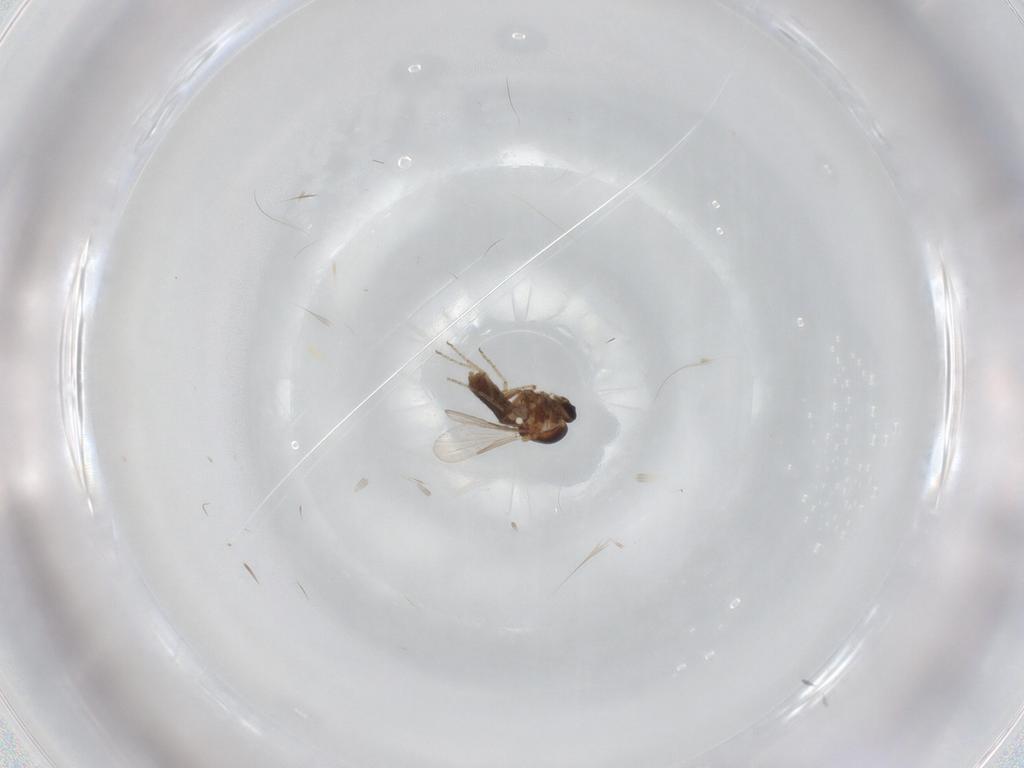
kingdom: Animalia
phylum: Arthropoda
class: Insecta
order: Diptera
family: Ceratopogonidae
